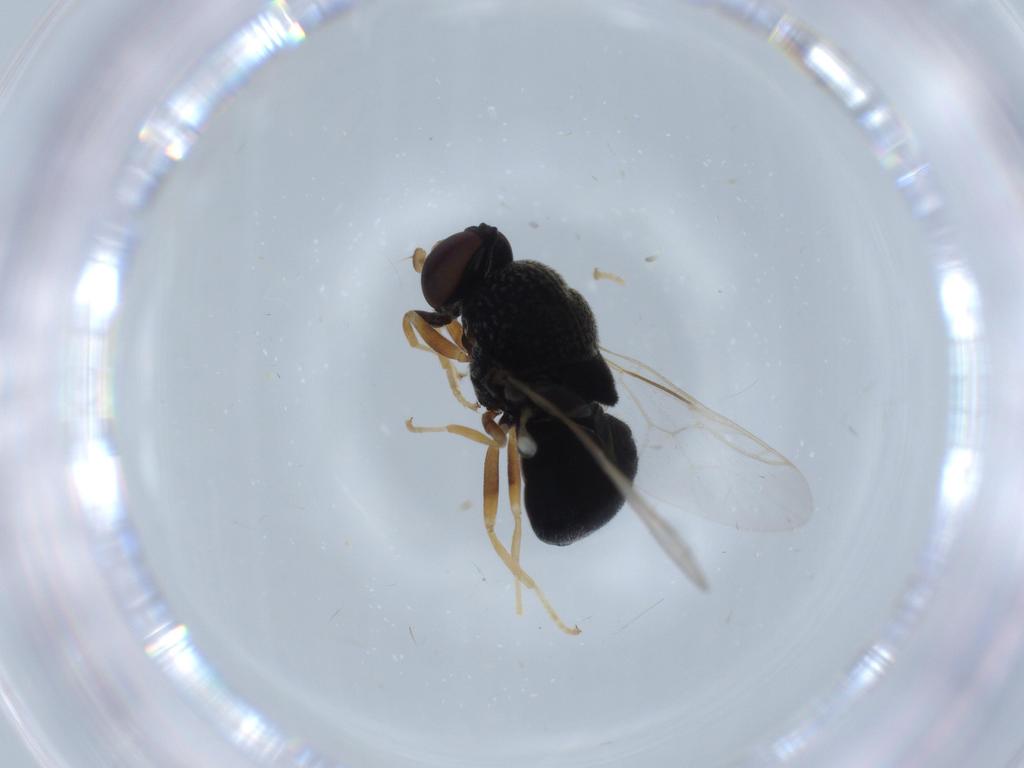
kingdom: Animalia
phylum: Arthropoda
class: Insecta
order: Diptera
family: Stratiomyidae
